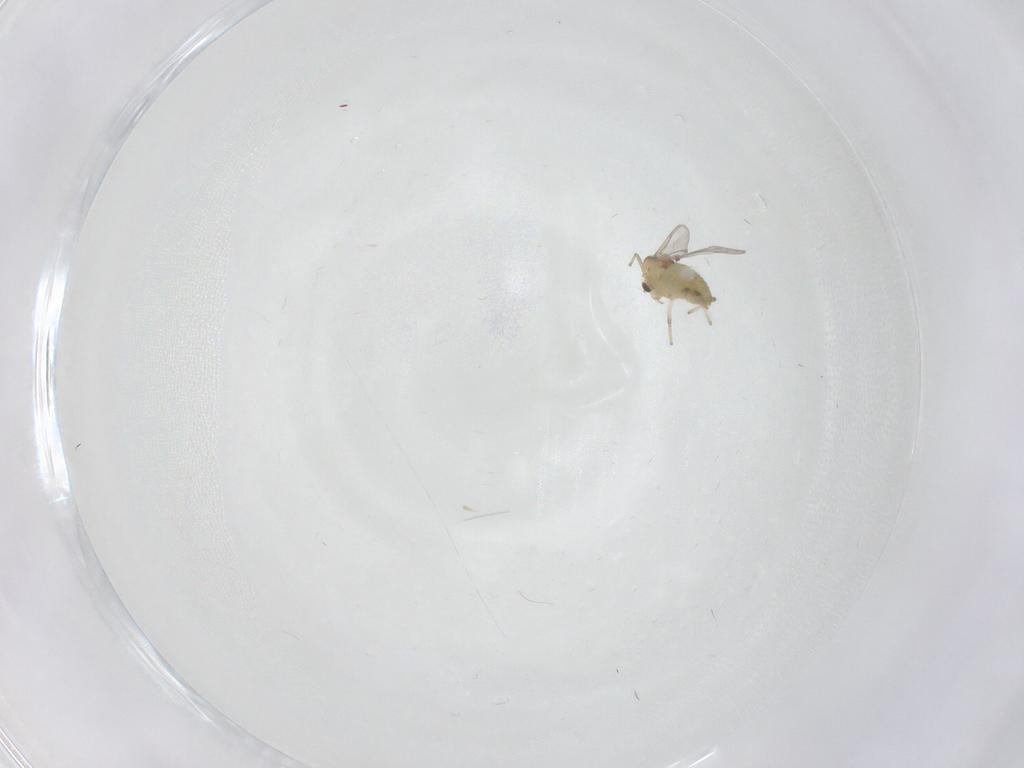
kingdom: Animalia
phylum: Arthropoda
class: Insecta
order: Diptera
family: Chironomidae
